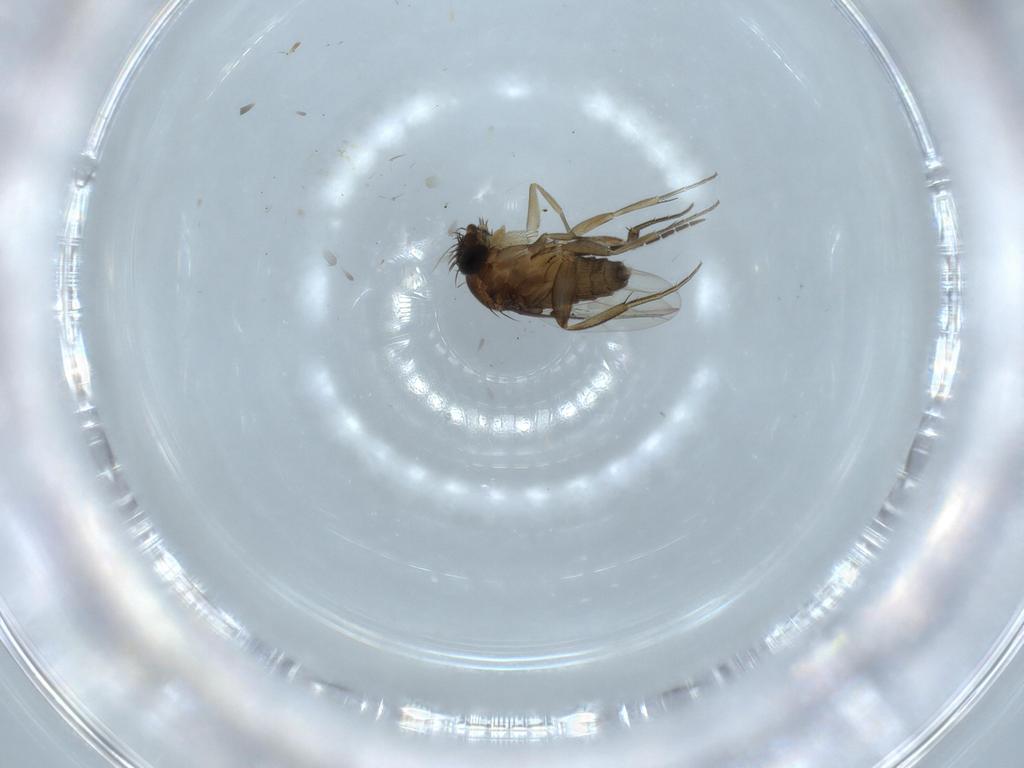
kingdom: Animalia
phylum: Arthropoda
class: Insecta
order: Diptera
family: Phoridae
